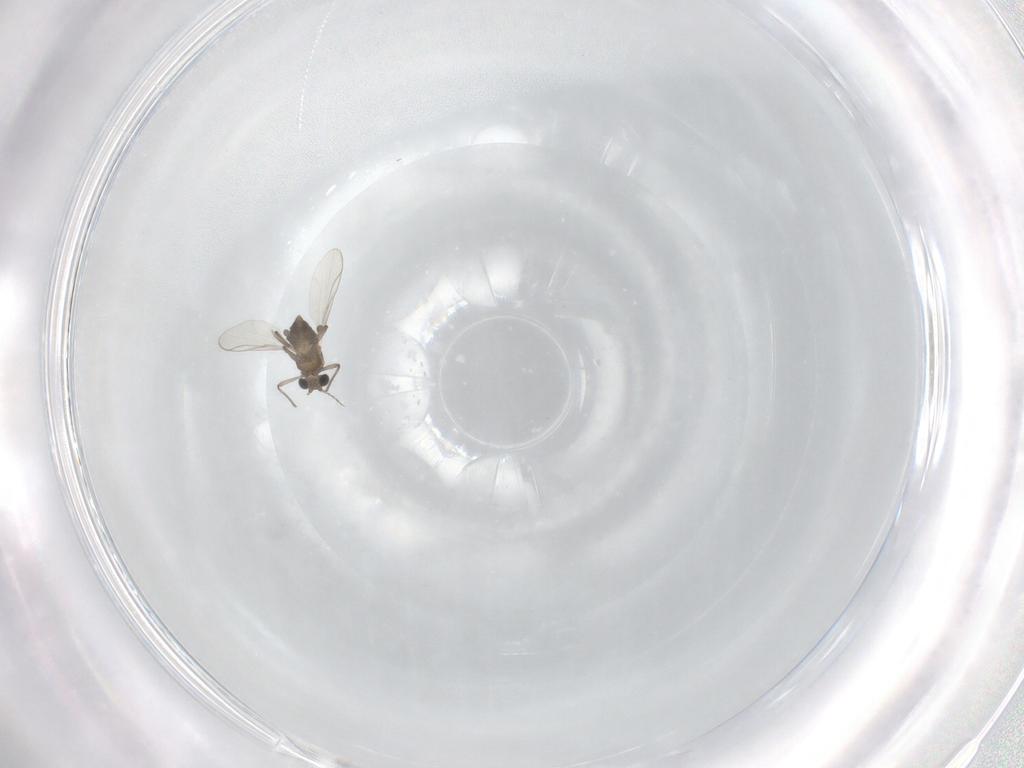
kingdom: Animalia
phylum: Arthropoda
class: Insecta
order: Diptera
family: Chironomidae
